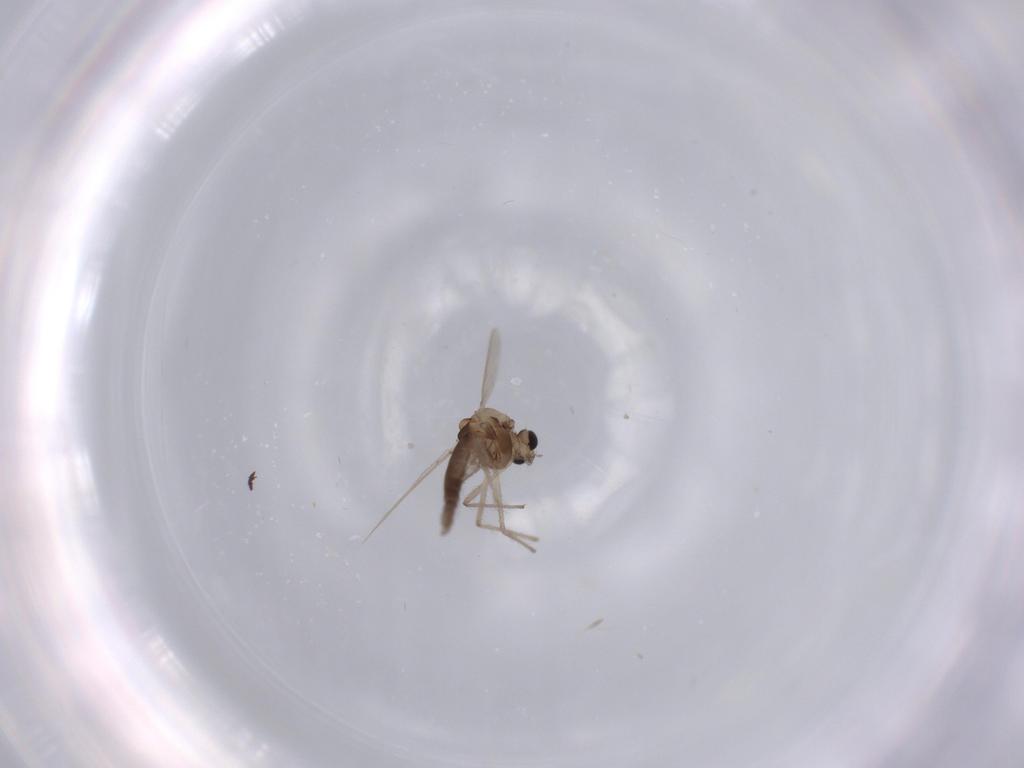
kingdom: Animalia
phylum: Arthropoda
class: Insecta
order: Diptera
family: Chironomidae
